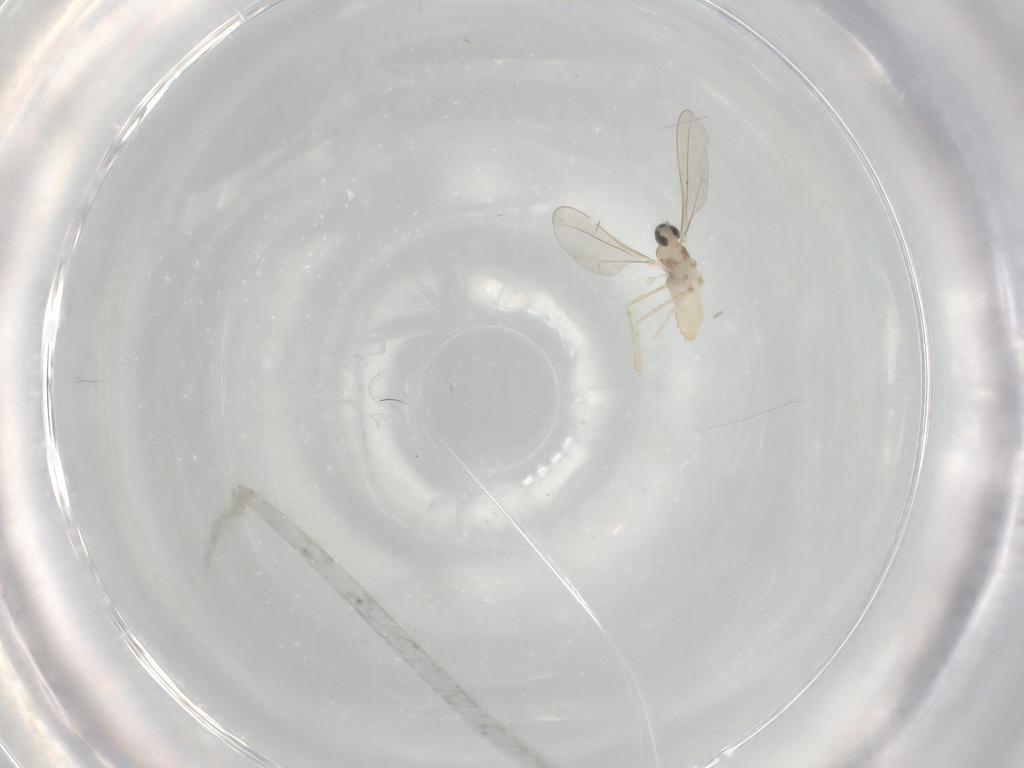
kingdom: Animalia
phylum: Arthropoda
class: Insecta
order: Diptera
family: Cecidomyiidae
